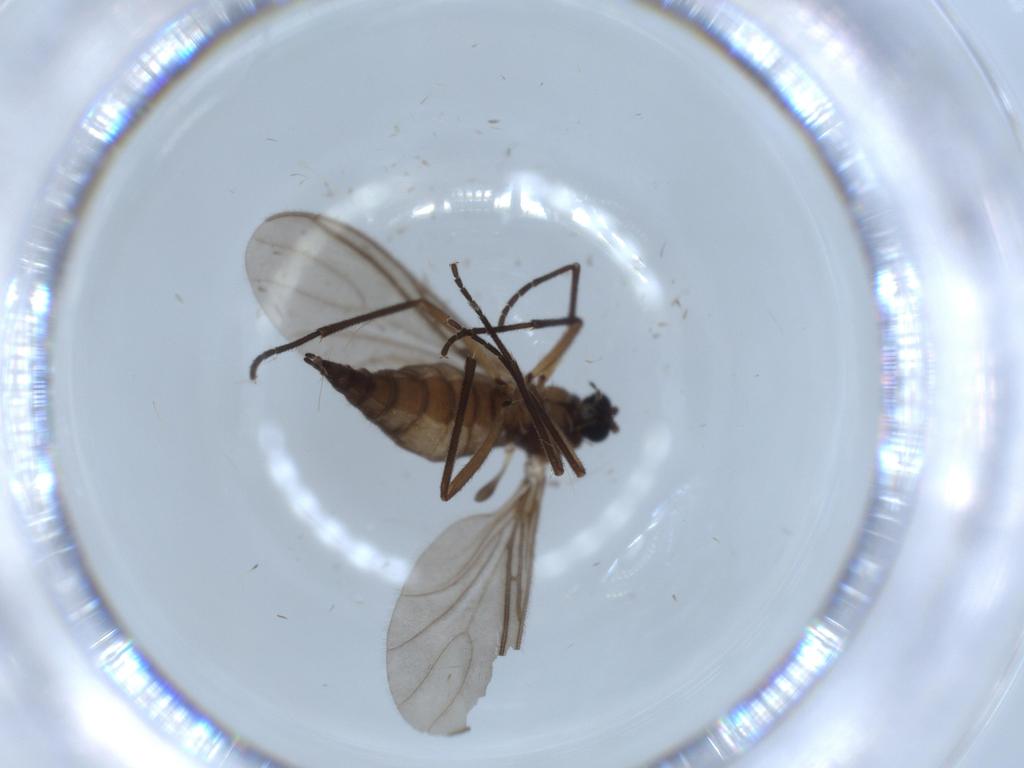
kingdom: Animalia
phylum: Arthropoda
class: Insecta
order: Diptera
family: Sciaridae
